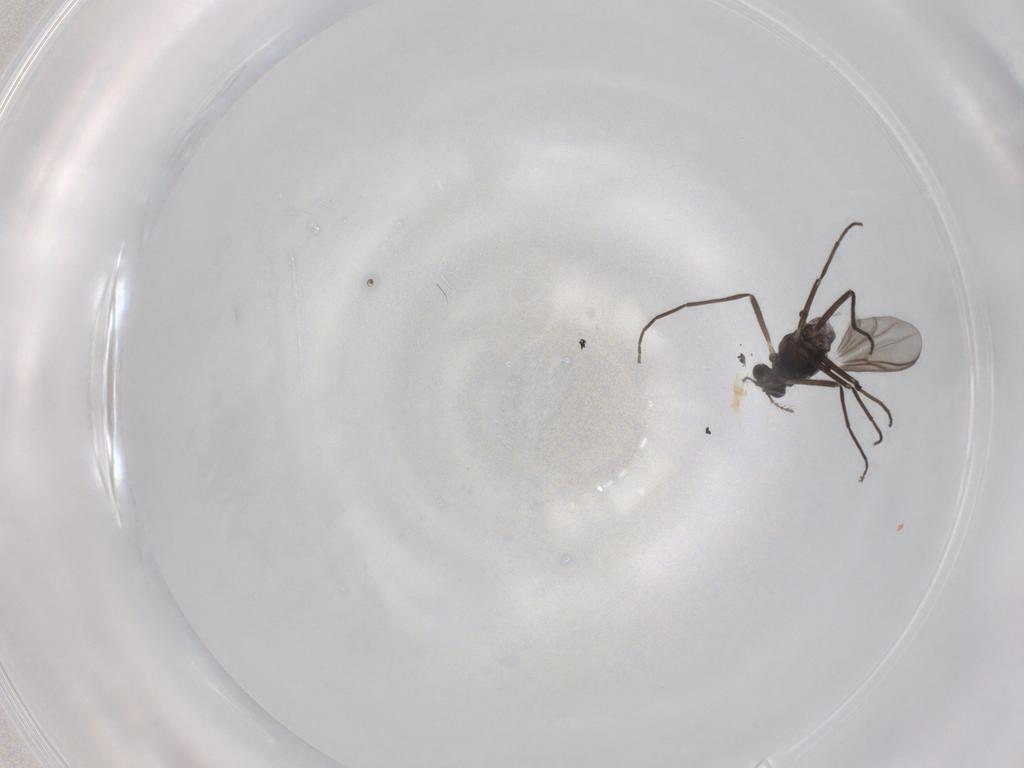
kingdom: Animalia
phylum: Arthropoda
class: Insecta
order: Diptera
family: Chironomidae
